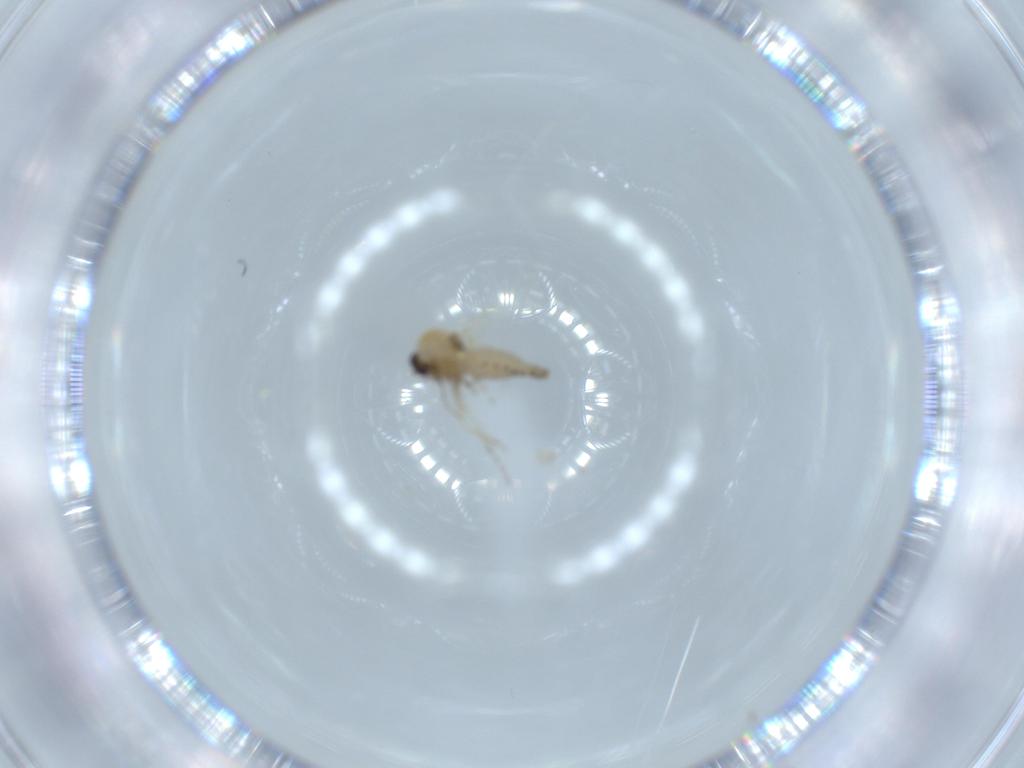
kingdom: Animalia
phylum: Arthropoda
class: Insecta
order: Diptera
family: Ceratopogonidae
